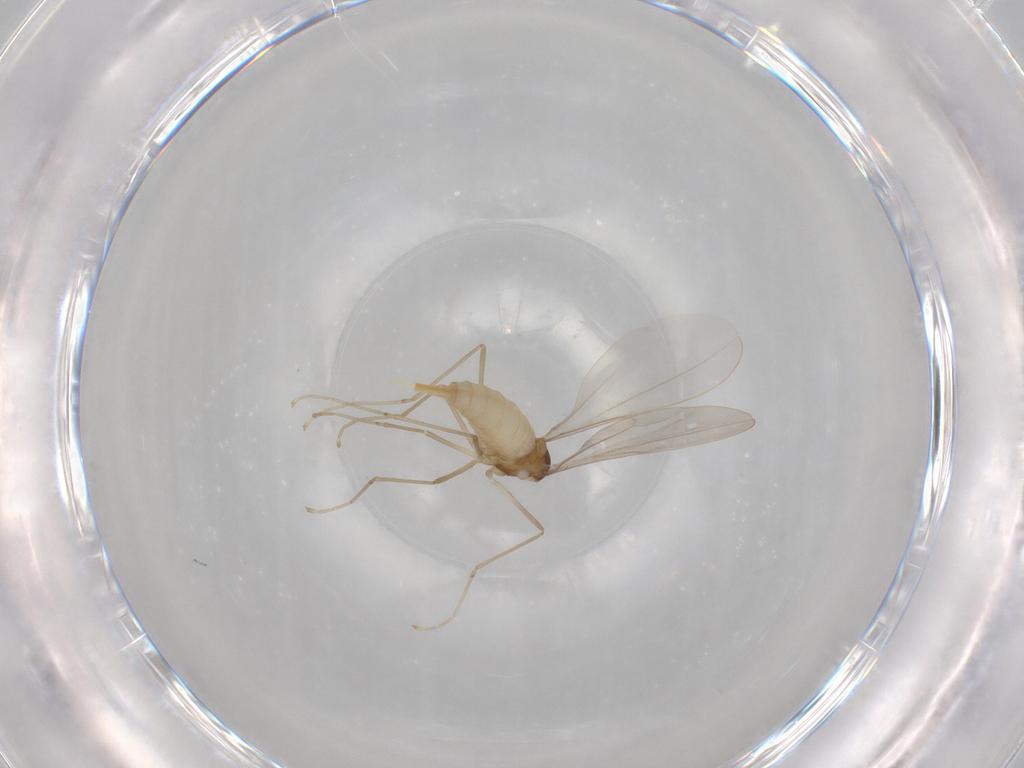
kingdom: Animalia
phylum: Arthropoda
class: Insecta
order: Diptera
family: Cecidomyiidae
